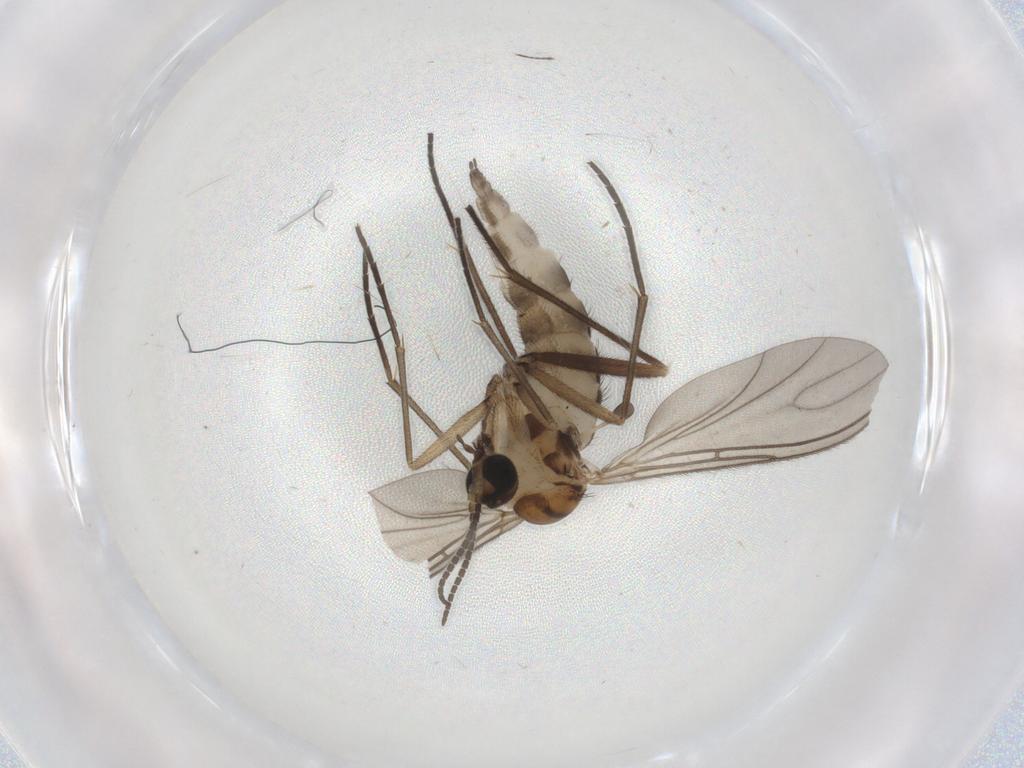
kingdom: Animalia
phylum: Arthropoda
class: Insecta
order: Diptera
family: Sciaridae
